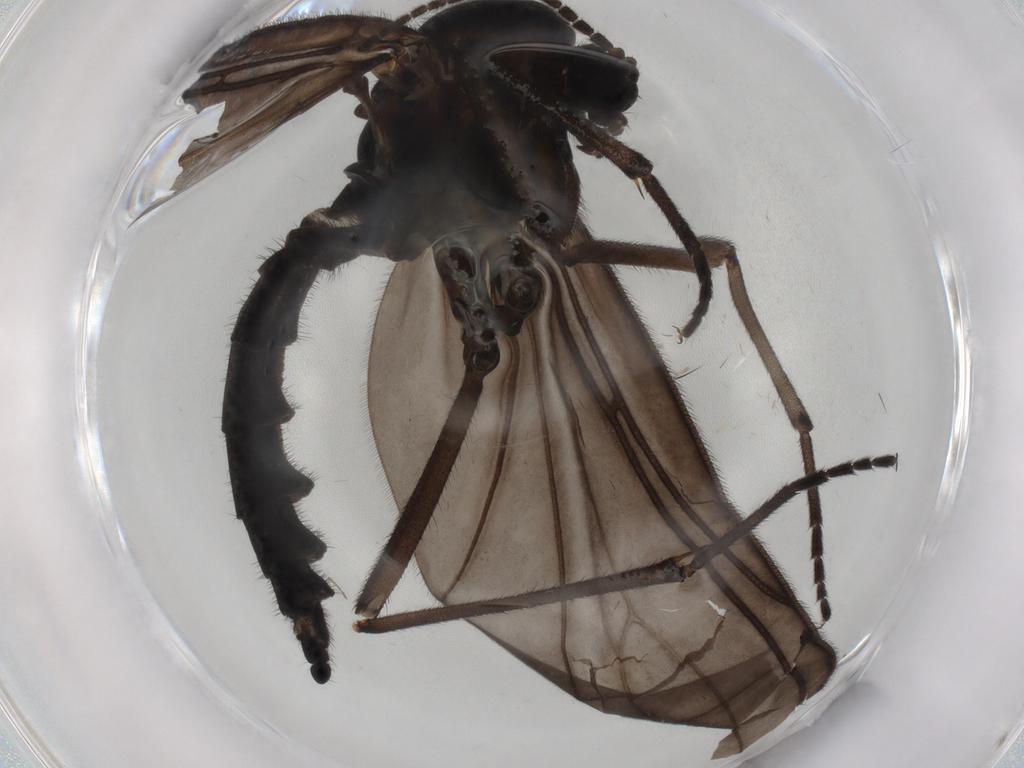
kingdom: Animalia
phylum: Arthropoda
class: Insecta
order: Diptera
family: Sciaridae
